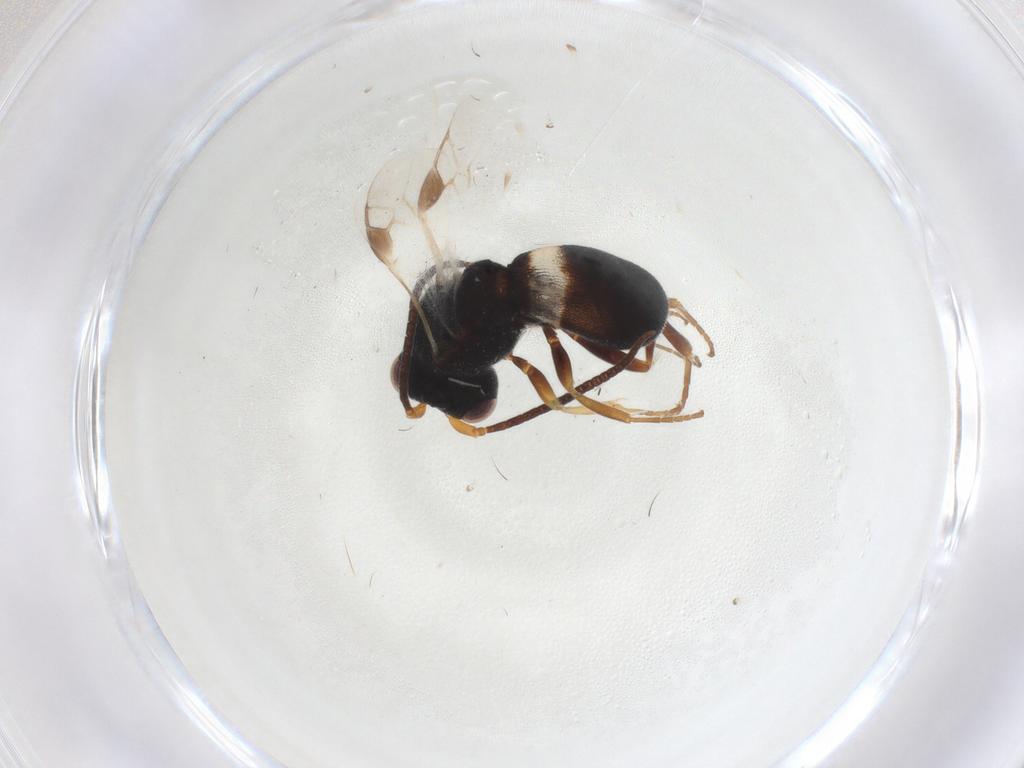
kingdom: Animalia
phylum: Arthropoda
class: Insecta
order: Hymenoptera
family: Braconidae
